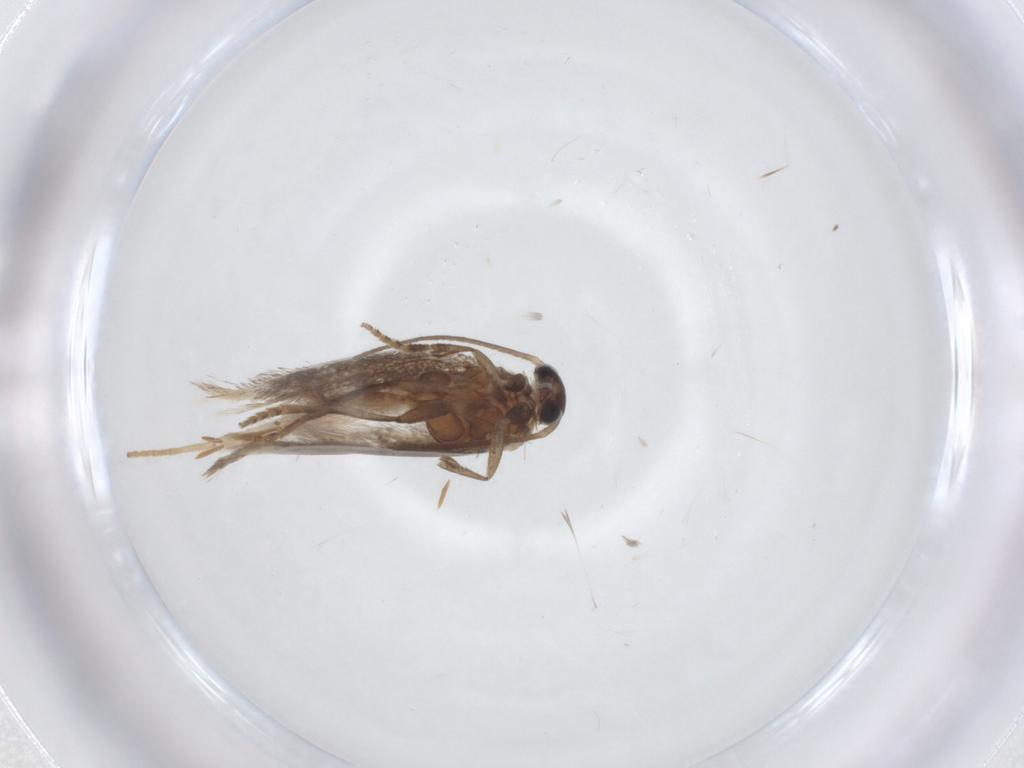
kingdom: Animalia
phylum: Arthropoda
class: Insecta
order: Lepidoptera
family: Elachistidae
